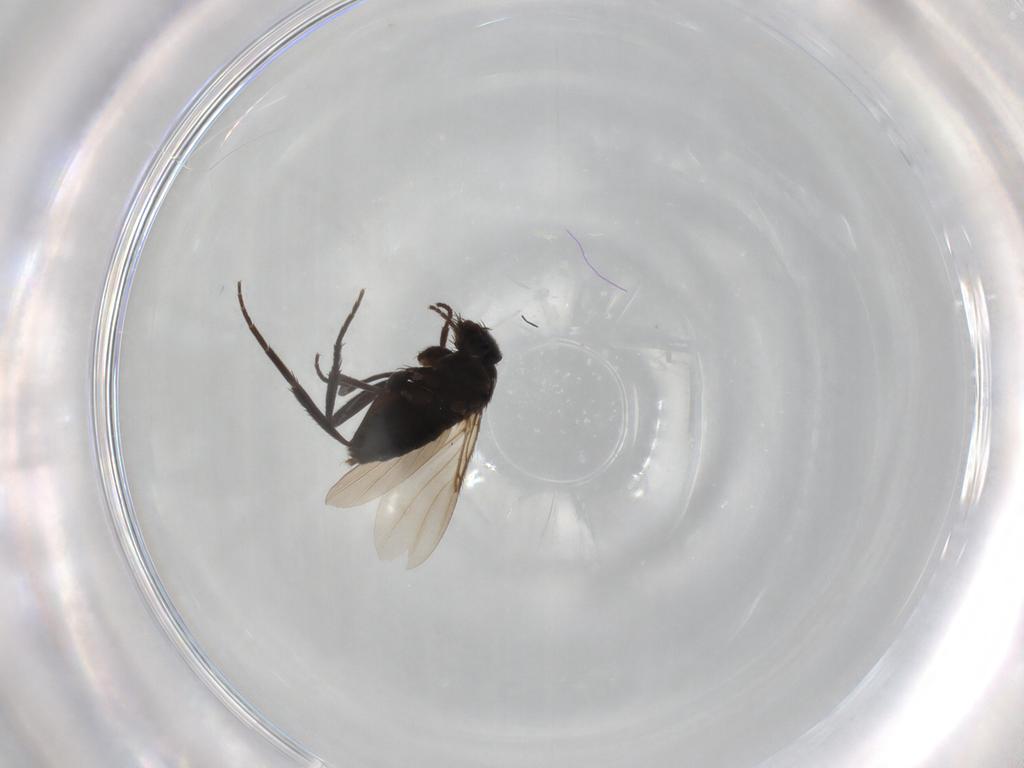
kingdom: Animalia
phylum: Arthropoda
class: Insecta
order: Diptera
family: Phoridae
